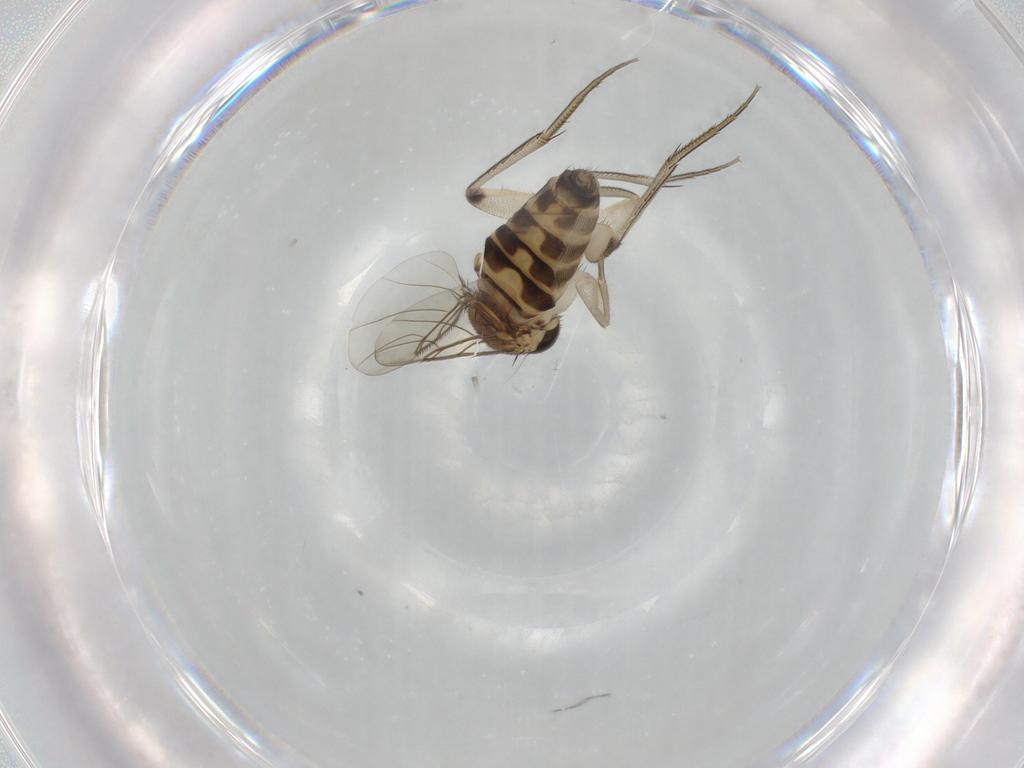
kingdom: Animalia
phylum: Arthropoda
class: Insecta
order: Diptera
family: Phoridae
